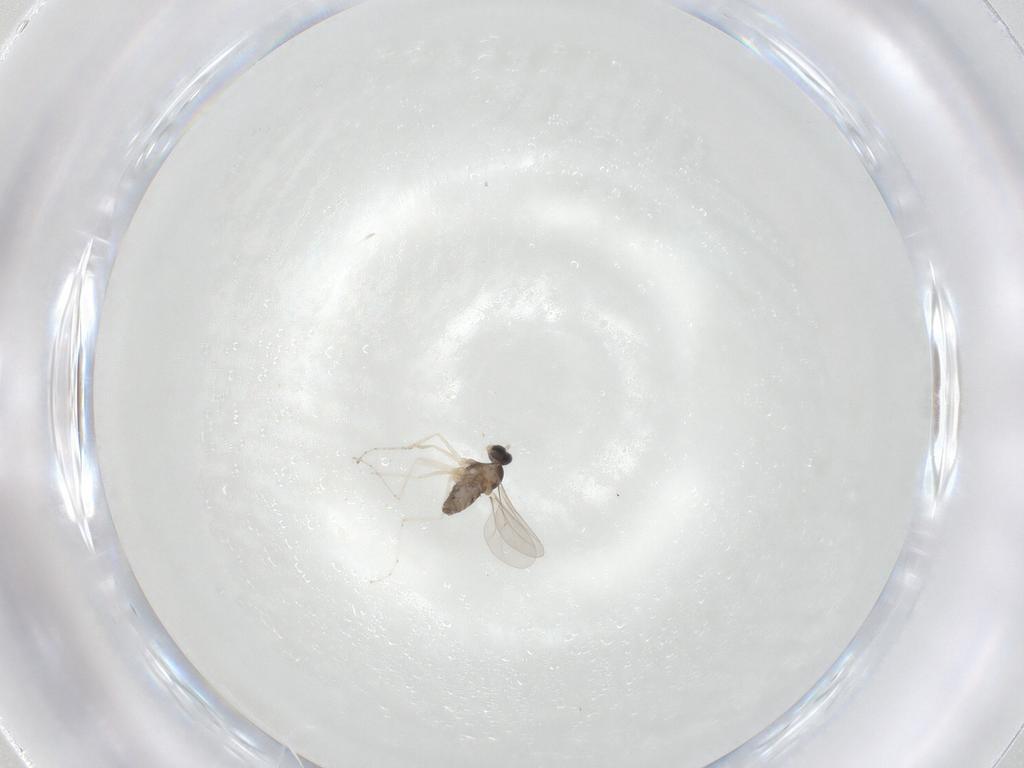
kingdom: Animalia
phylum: Arthropoda
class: Insecta
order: Diptera
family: Cecidomyiidae
